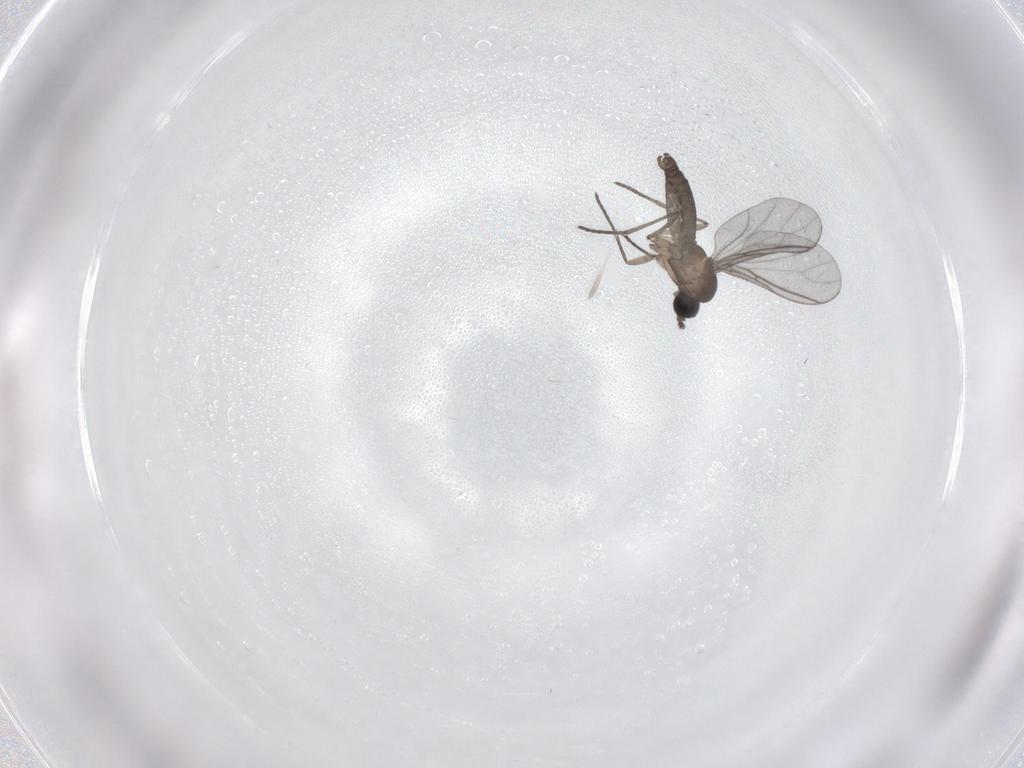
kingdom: Animalia
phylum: Arthropoda
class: Insecta
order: Diptera
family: Sciaridae
